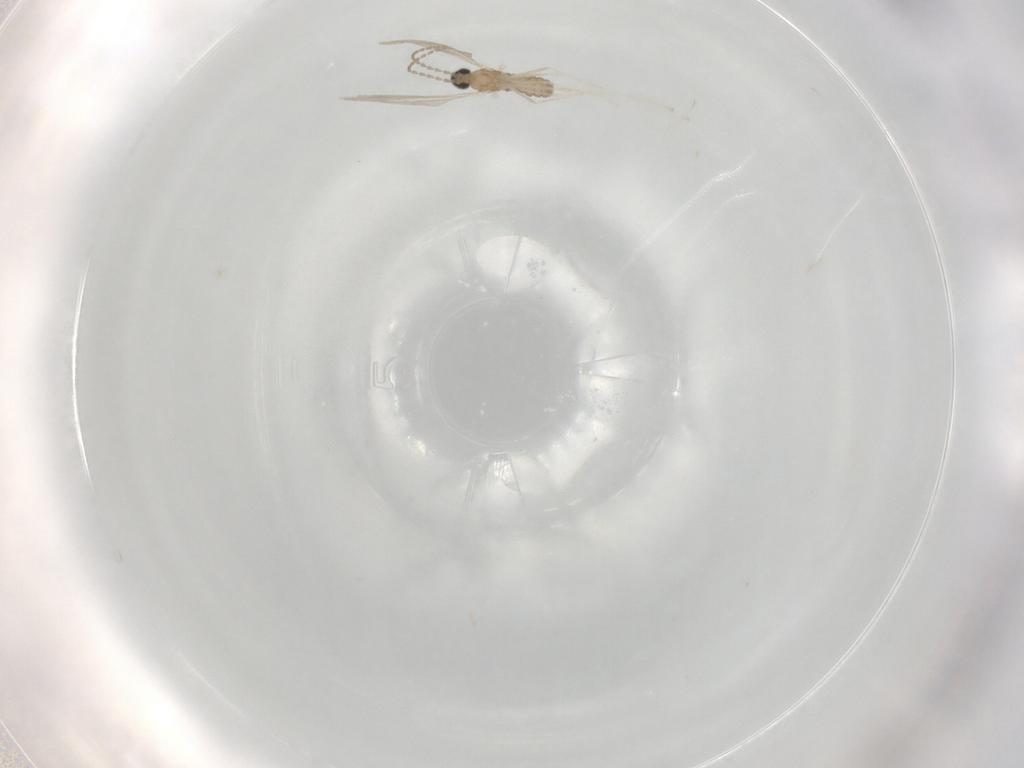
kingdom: Animalia
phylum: Arthropoda
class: Insecta
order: Diptera
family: Cecidomyiidae
